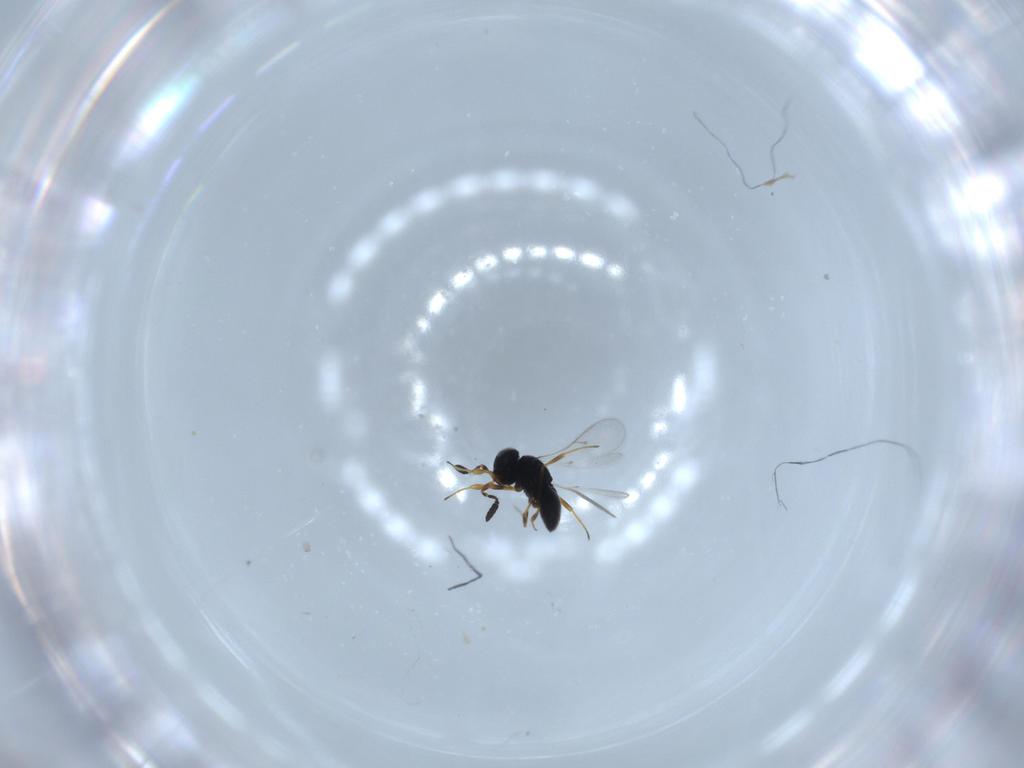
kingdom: Animalia
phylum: Arthropoda
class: Insecta
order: Hymenoptera
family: Scelionidae
